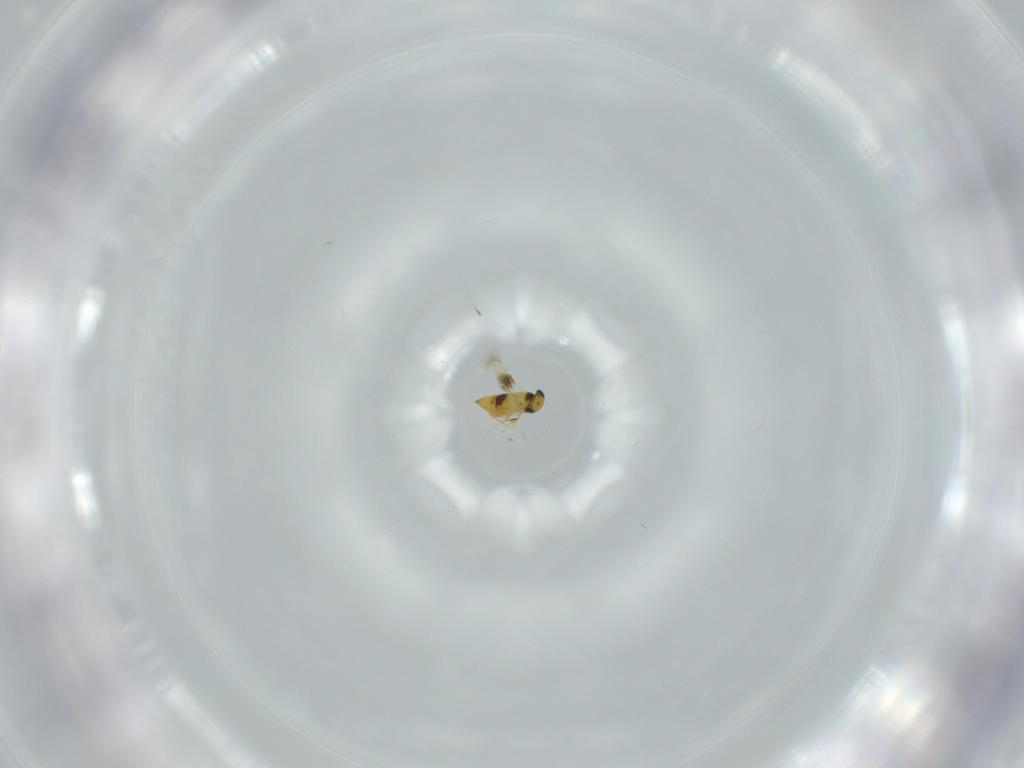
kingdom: Animalia
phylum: Arthropoda
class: Insecta
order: Hymenoptera
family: Signiphoridae
